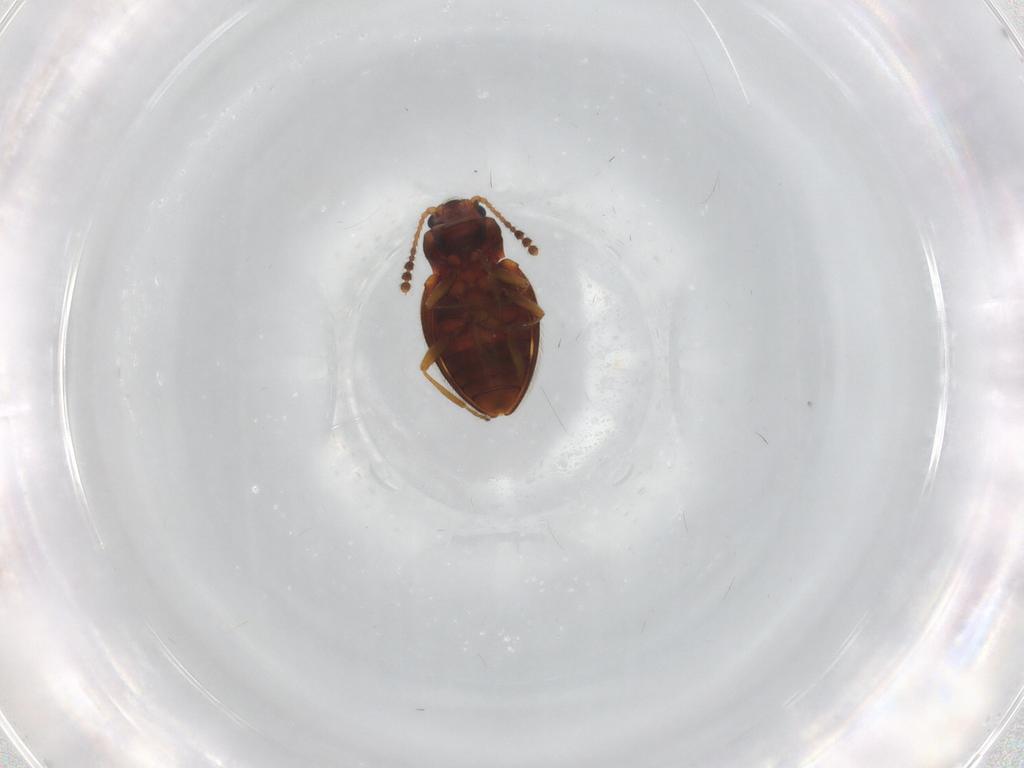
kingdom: Animalia
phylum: Arthropoda
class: Insecta
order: Coleoptera
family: Erotylidae
